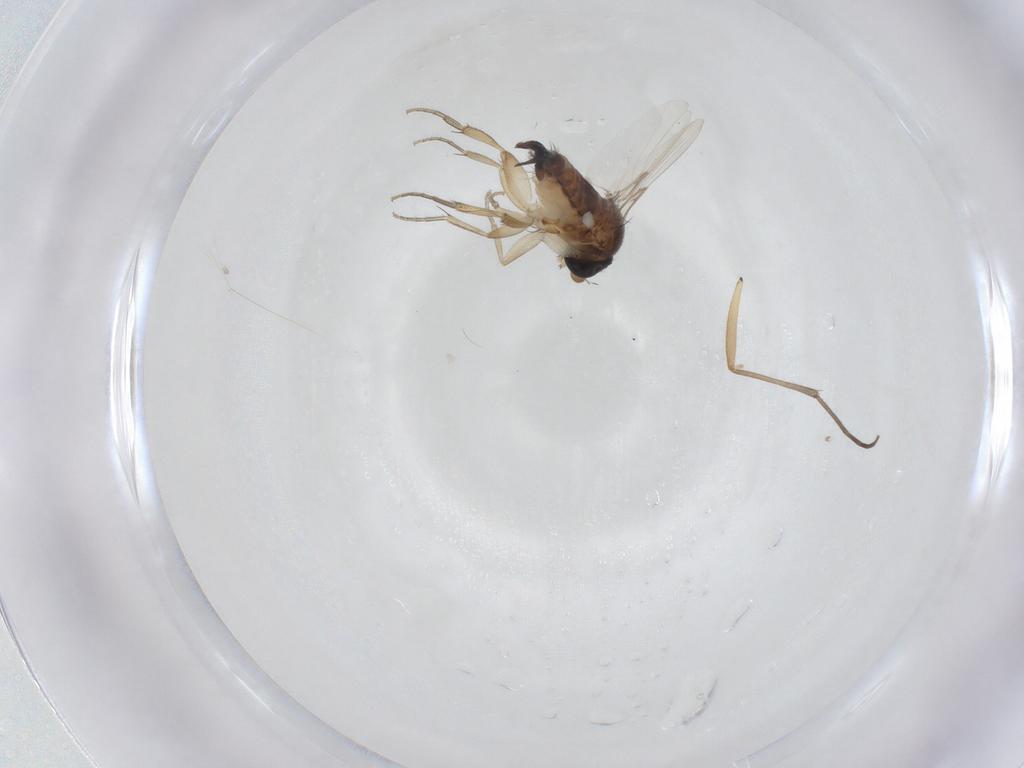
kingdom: Animalia
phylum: Arthropoda
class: Insecta
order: Diptera
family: Phoridae
